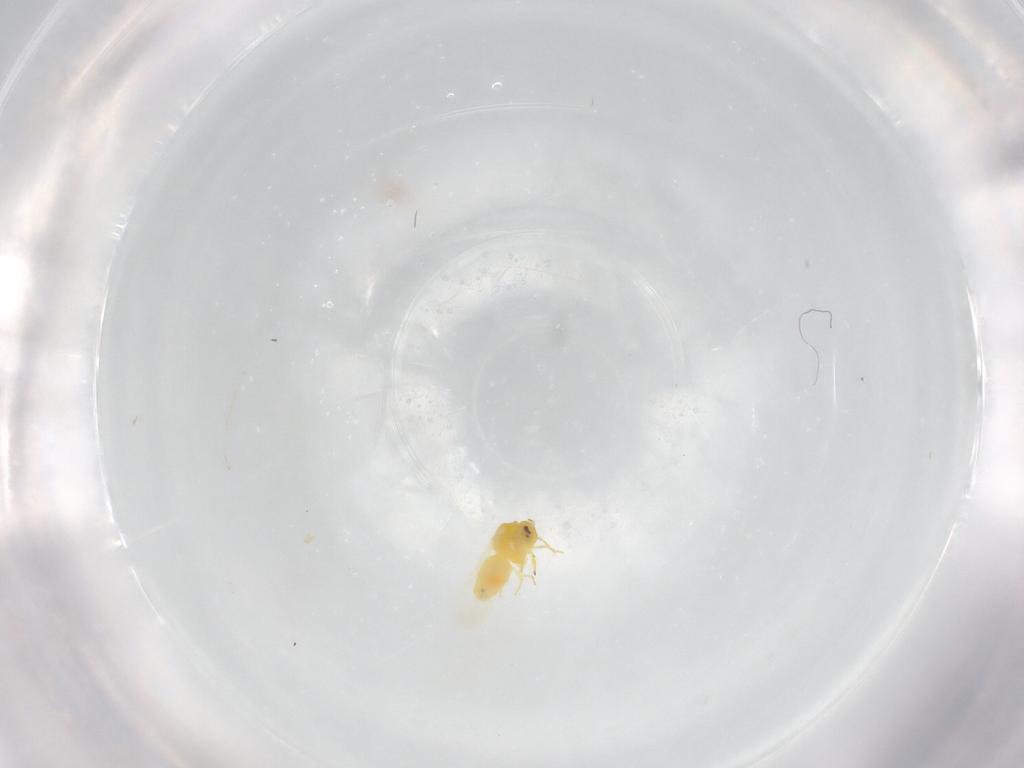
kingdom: Animalia
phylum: Arthropoda
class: Insecta
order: Hemiptera
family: Aleyrodidae
